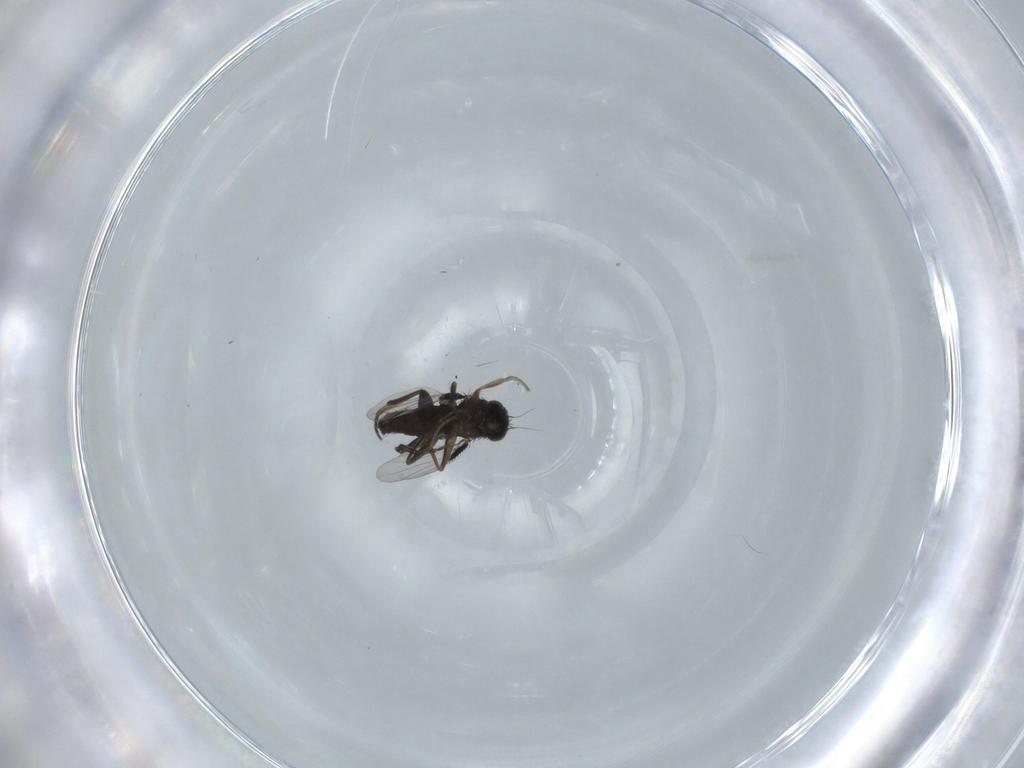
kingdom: Animalia
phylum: Arthropoda
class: Insecta
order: Diptera
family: Phoridae
